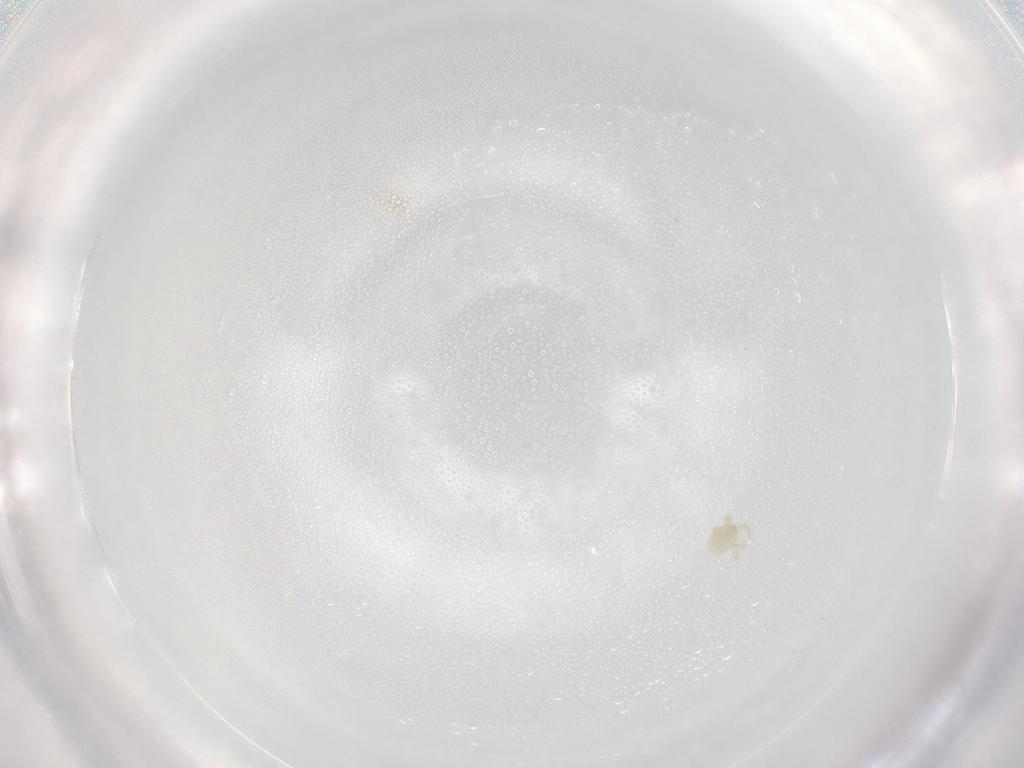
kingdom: Animalia
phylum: Arthropoda
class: Arachnida
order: Trombidiformes
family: Hydryphantidae
